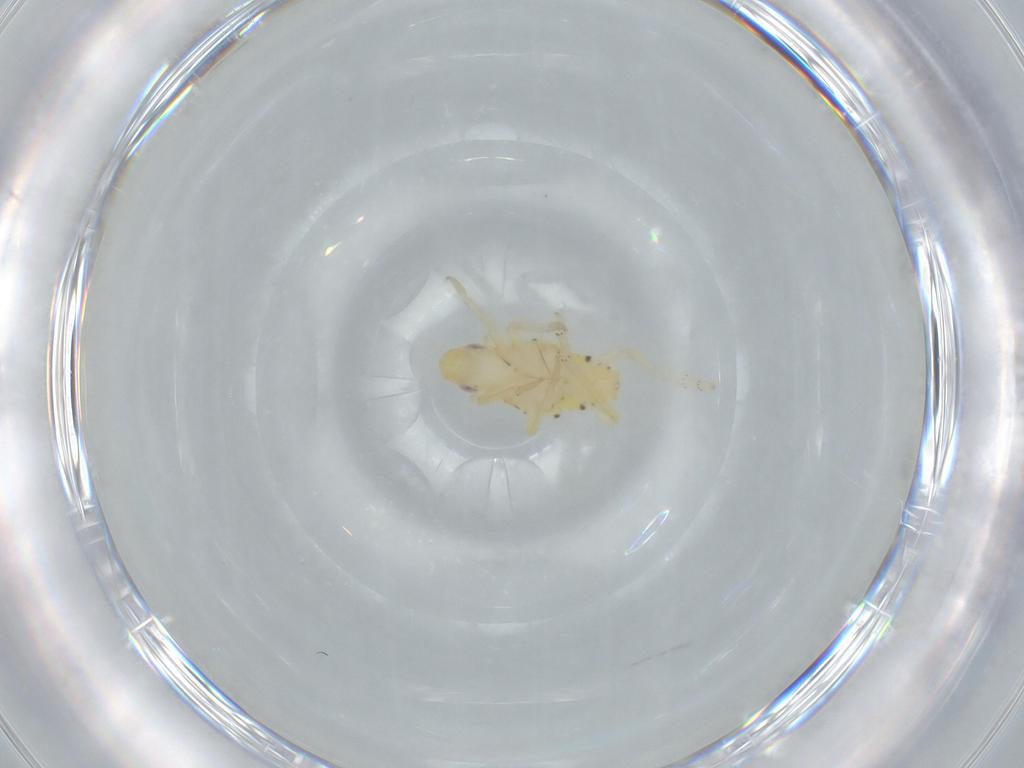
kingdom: Animalia
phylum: Arthropoda
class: Insecta
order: Hemiptera
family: Tropiduchidae
